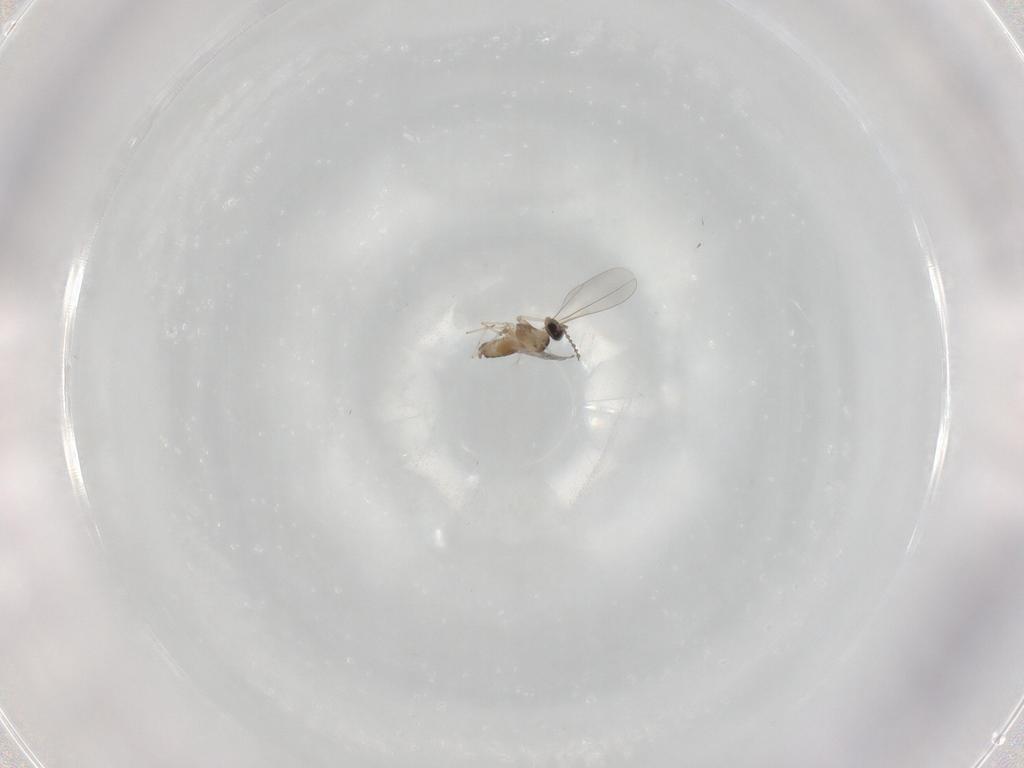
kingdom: Animalia
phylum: Arthropoda
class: Insecta
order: Diptera
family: Cecidomyiidae
